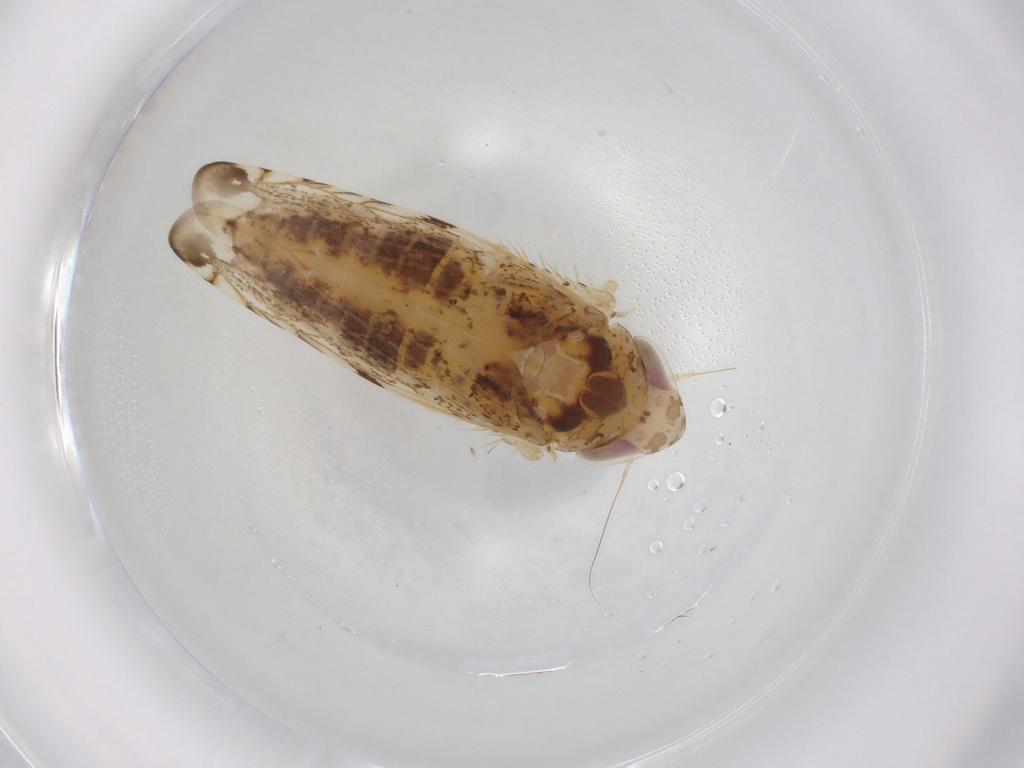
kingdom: Animalia
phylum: Arthropoda
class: Insecta
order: Hemiptera
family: Cicadellidae
